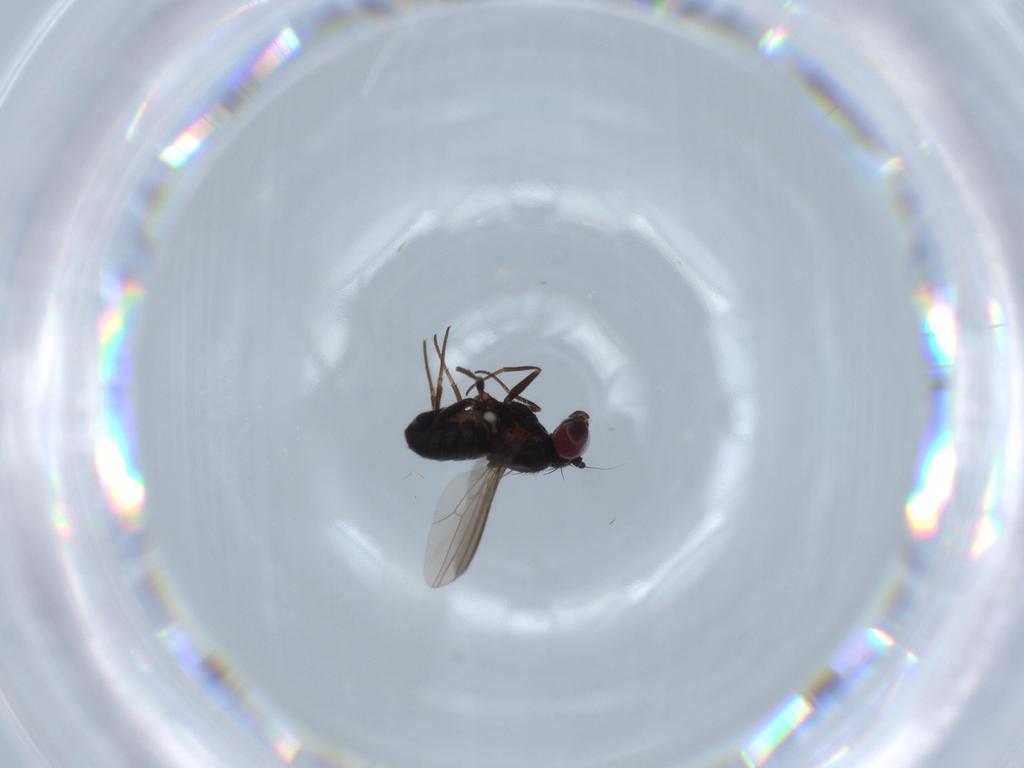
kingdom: Animalia
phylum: Arthropoda
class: Insecta
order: Diptera
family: Dolichopodidae
